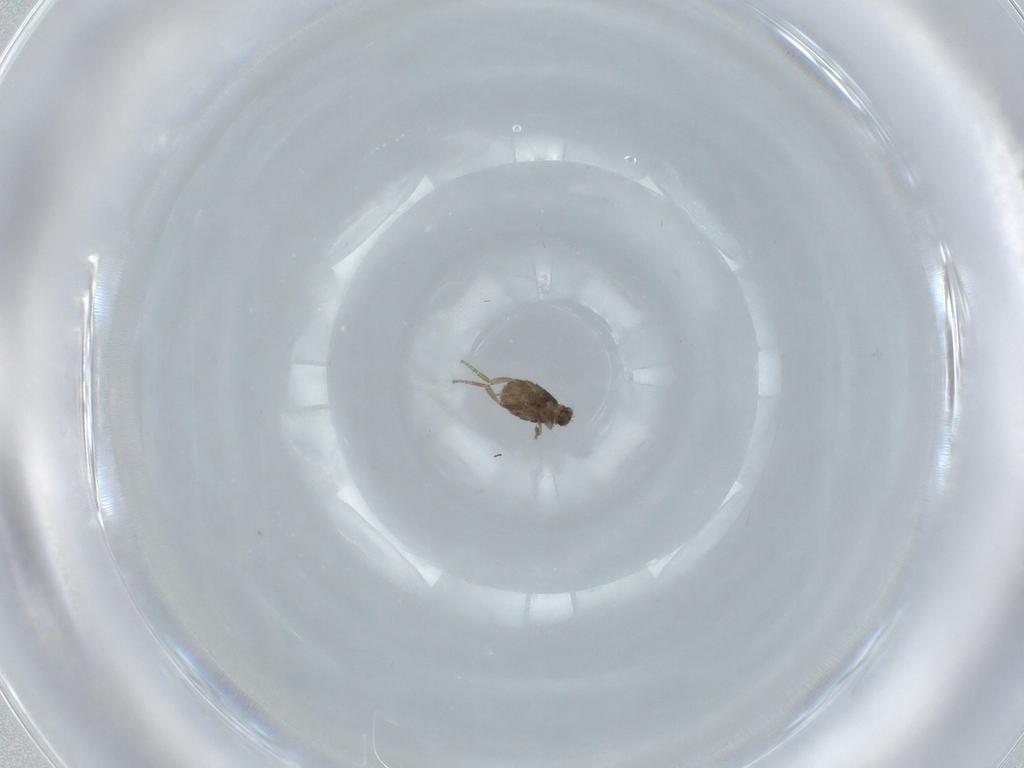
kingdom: Animalia
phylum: Arthropoda
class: Insecta
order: Diptera
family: Phoridae
